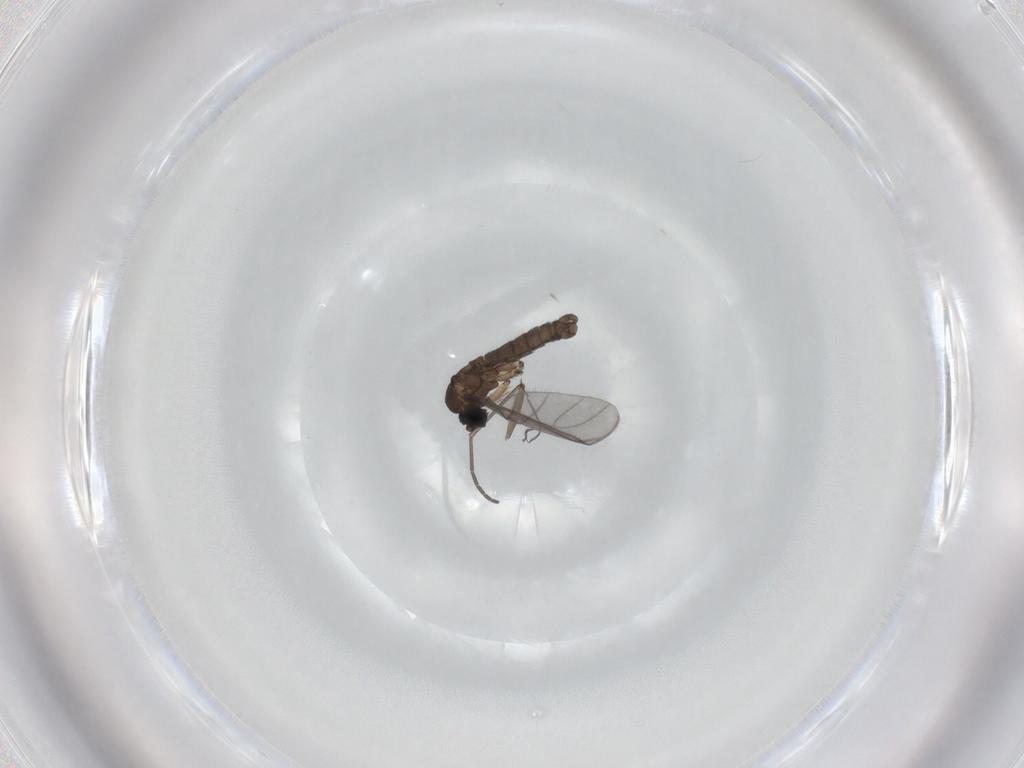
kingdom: Animalia
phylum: Arthropoda
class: Insecta
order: Diptera
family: Sciaridae
